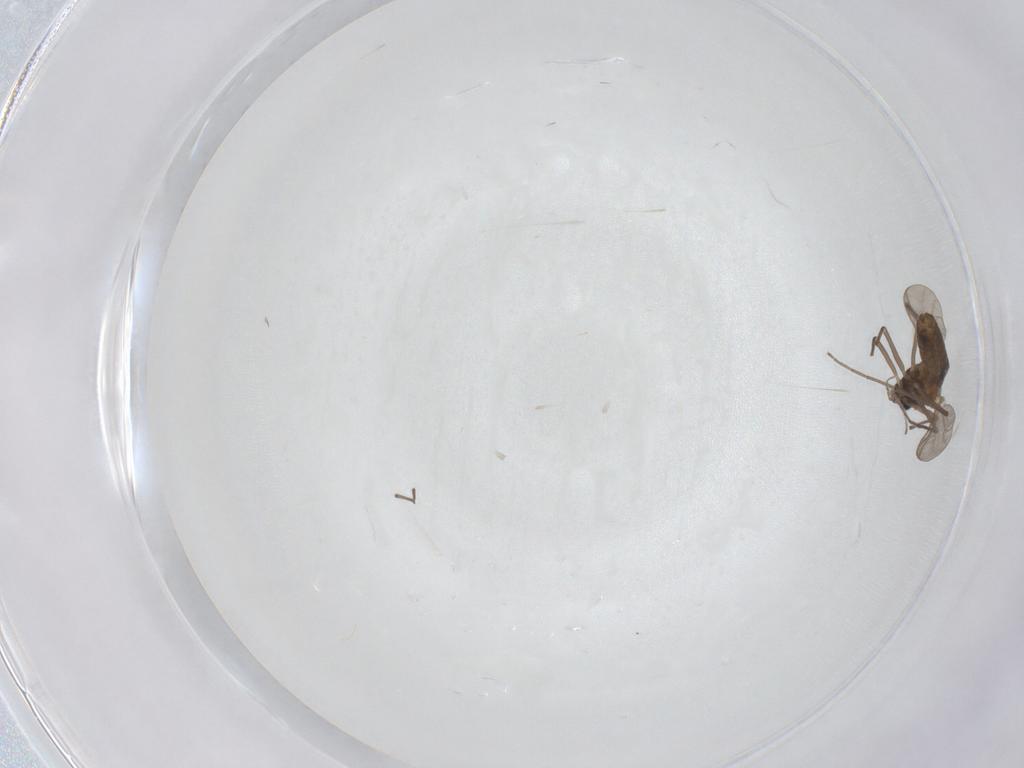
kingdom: Animalia
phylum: Arthropoda
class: Insecta
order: Diptera
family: Chironomidae
